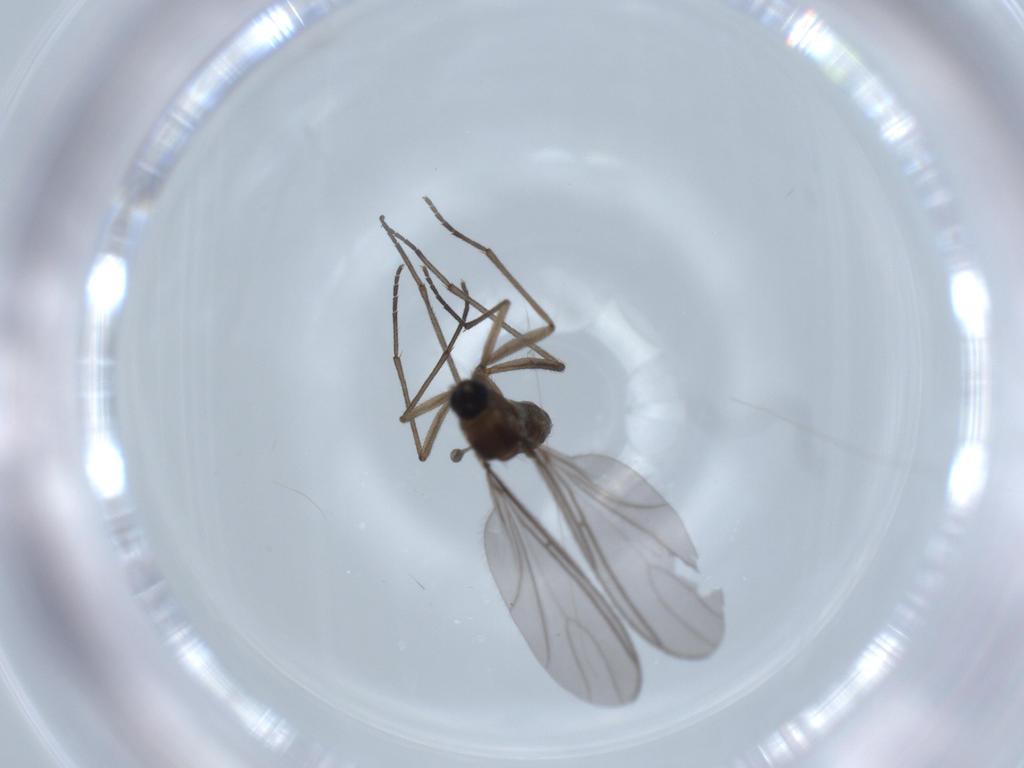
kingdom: Animalia
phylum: Arthropoda
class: Insecta
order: Diptera
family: Sciaridae
